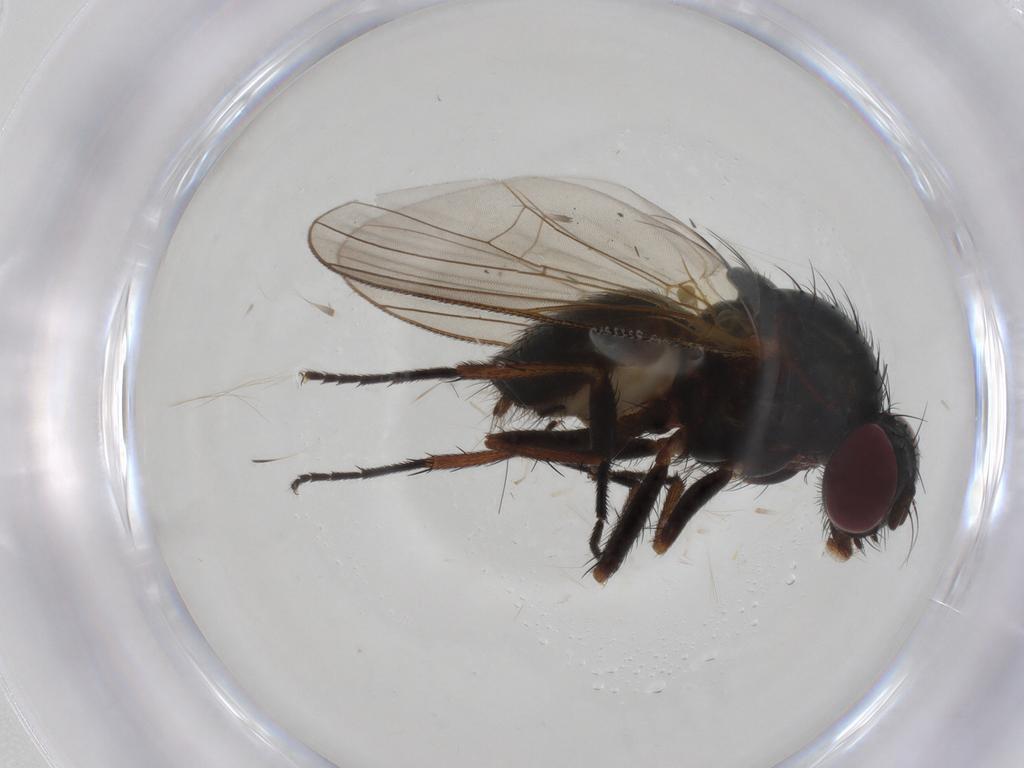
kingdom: Animalia
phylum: Arthropoda
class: Insecta
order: Diptera
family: Fannia
